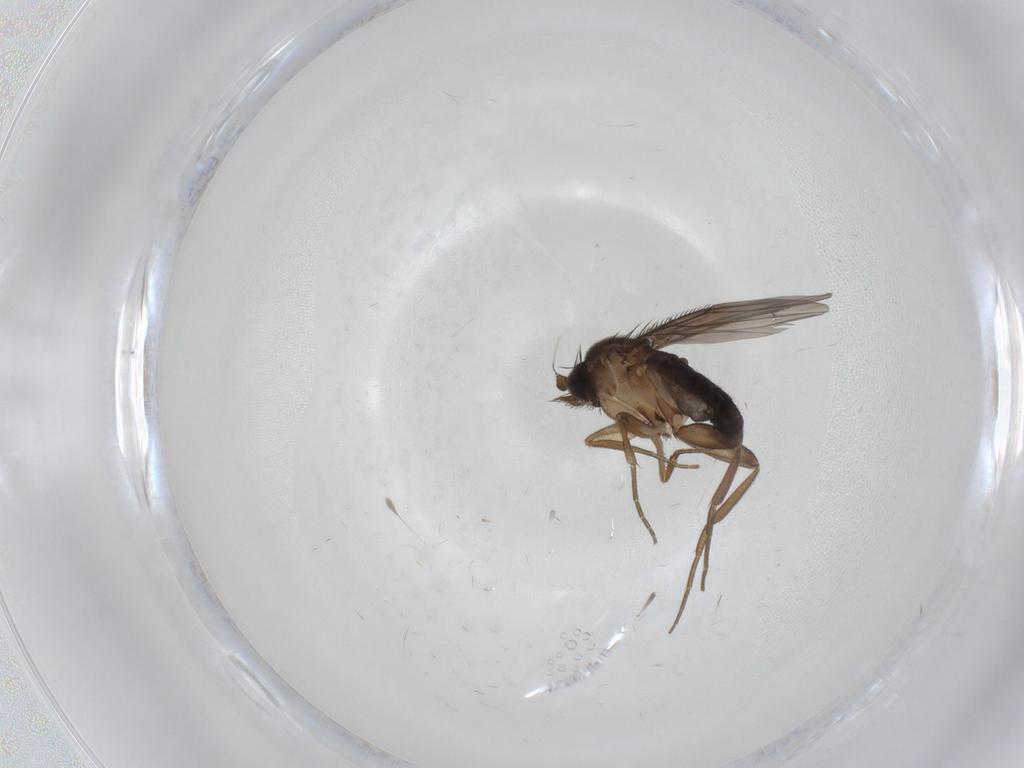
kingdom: Animalia
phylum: Arthropoda
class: Insecta
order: Diptera
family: Phoridae
